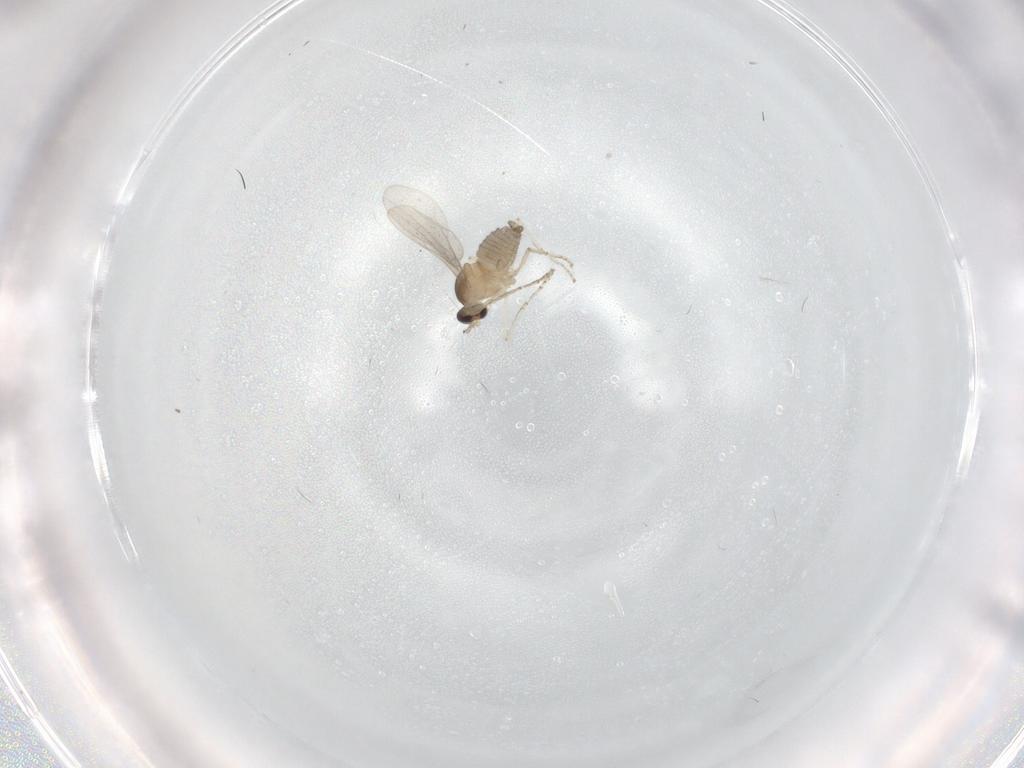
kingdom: Animalia
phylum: Arthropoda
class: Insecta
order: Diptera
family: Cecidomyiidae
